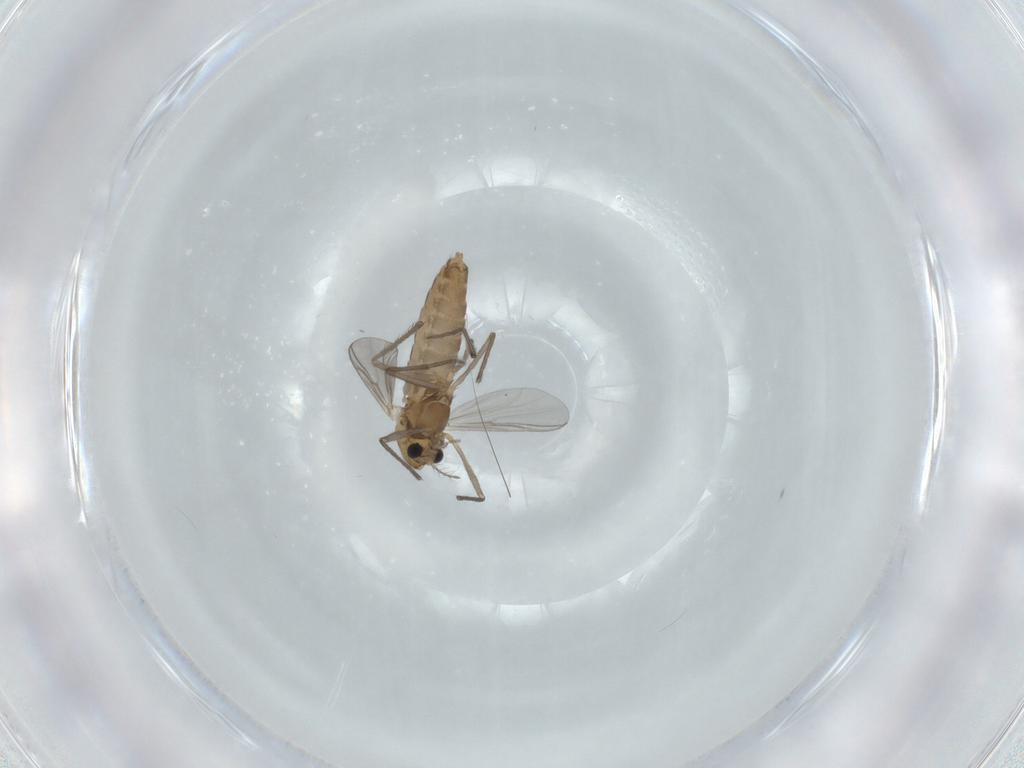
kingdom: Animalia
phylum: Arthropoda
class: Insecta
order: Diptera
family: Chironomidae
